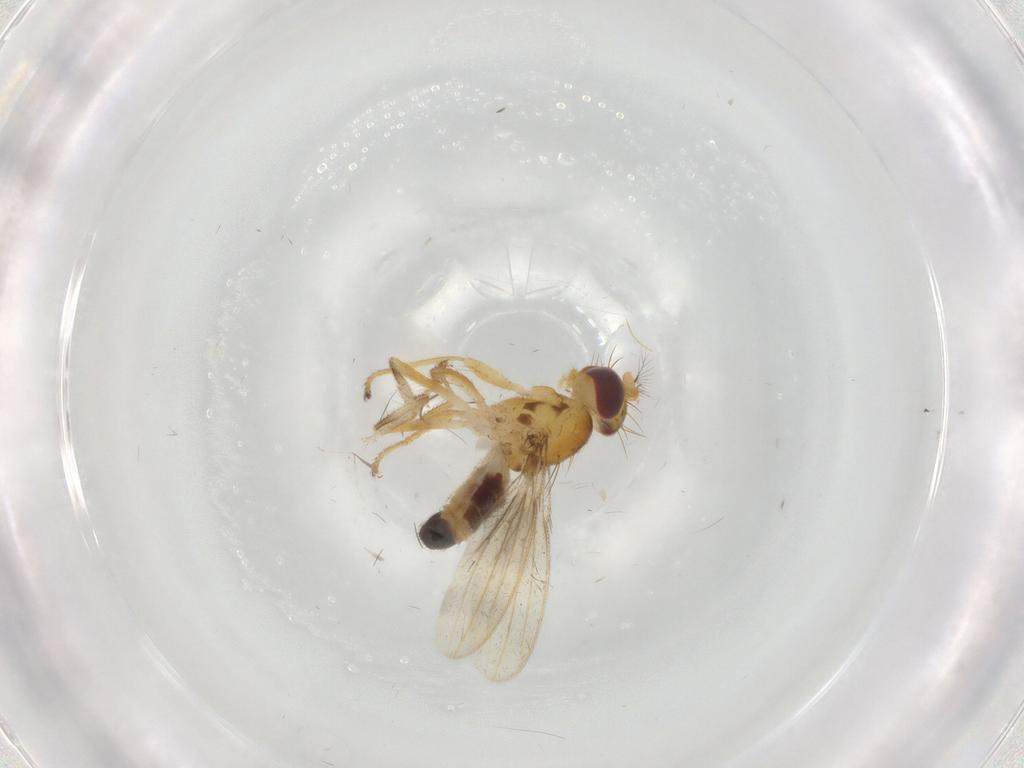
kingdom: Animalia
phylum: Arthropoda
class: Insecta
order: Diptera
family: Periscelididae
